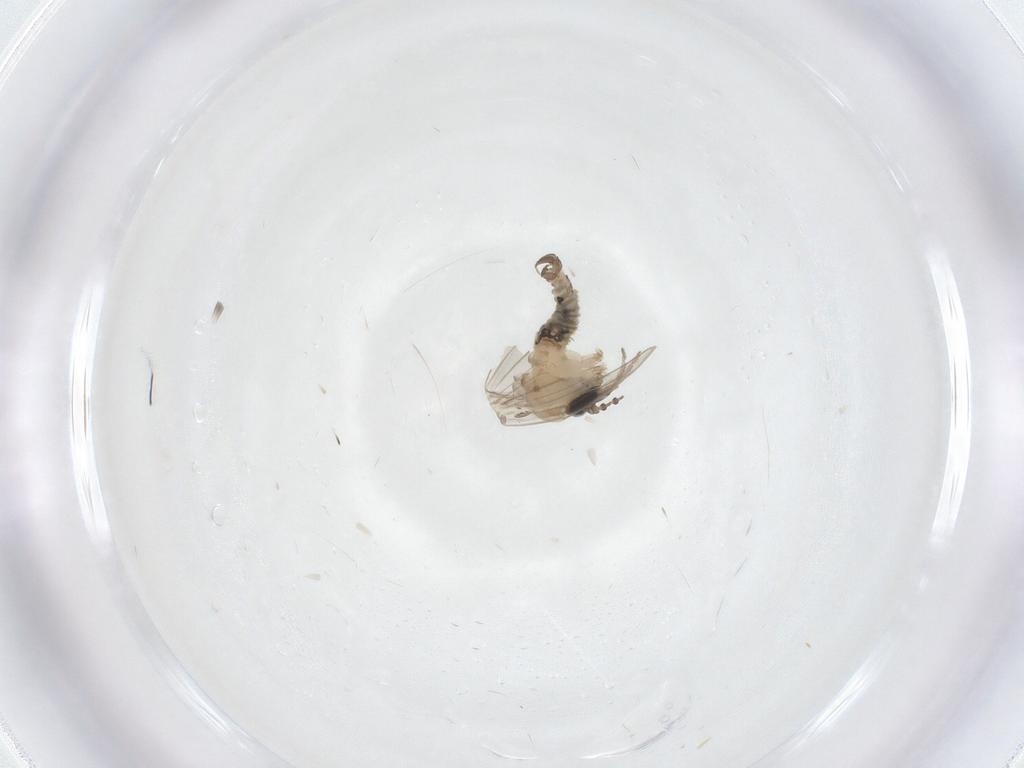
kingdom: Animalia
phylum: Arthropoda
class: Insecta
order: Diptera
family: Psychodidae
